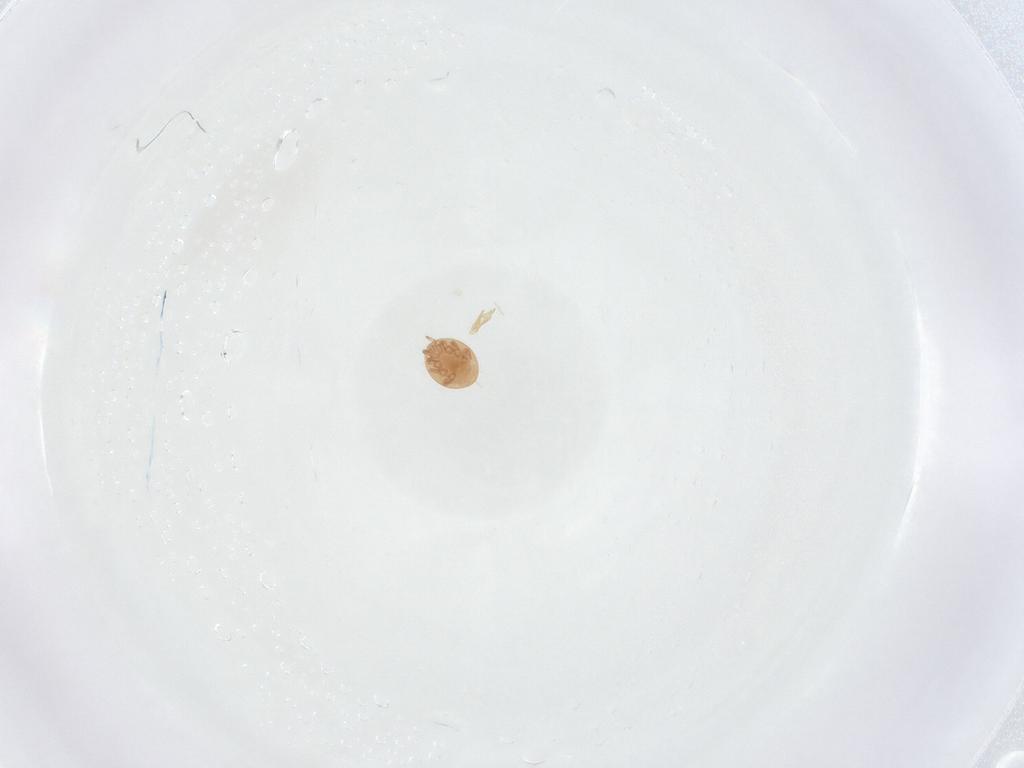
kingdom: Animalia
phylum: Arthropoda
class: Arachnida
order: Mesostigmata
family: Trematuridae
